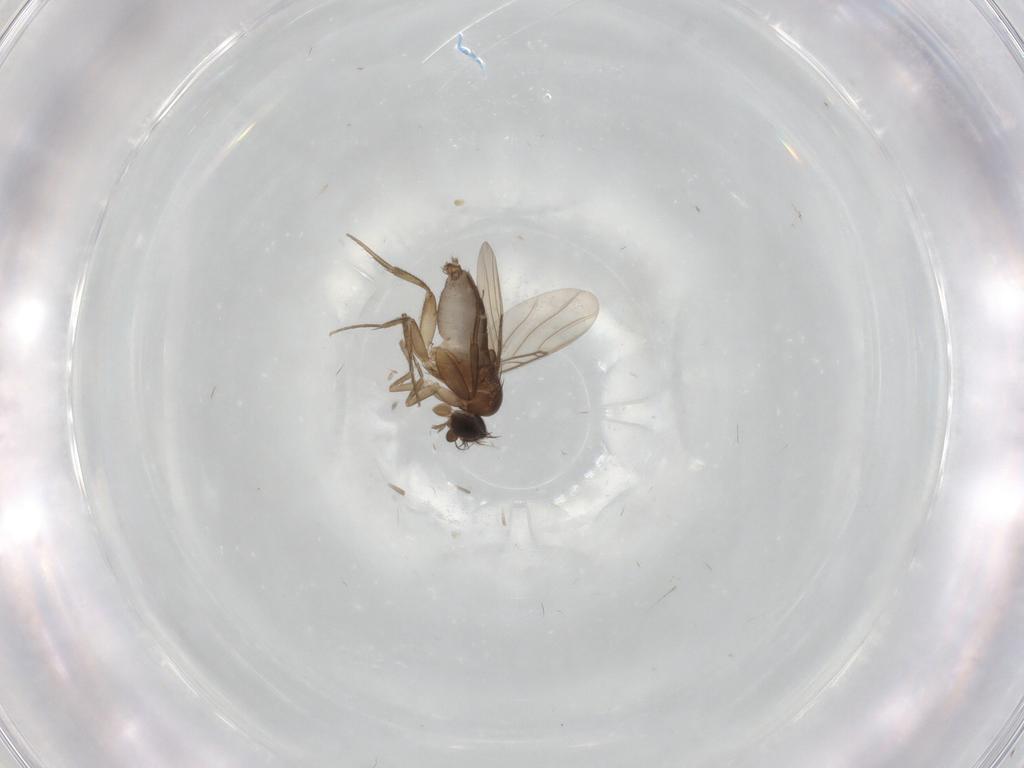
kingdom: Animalia
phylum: Arthropoda
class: Insecta
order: Diptera
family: Phoridae
